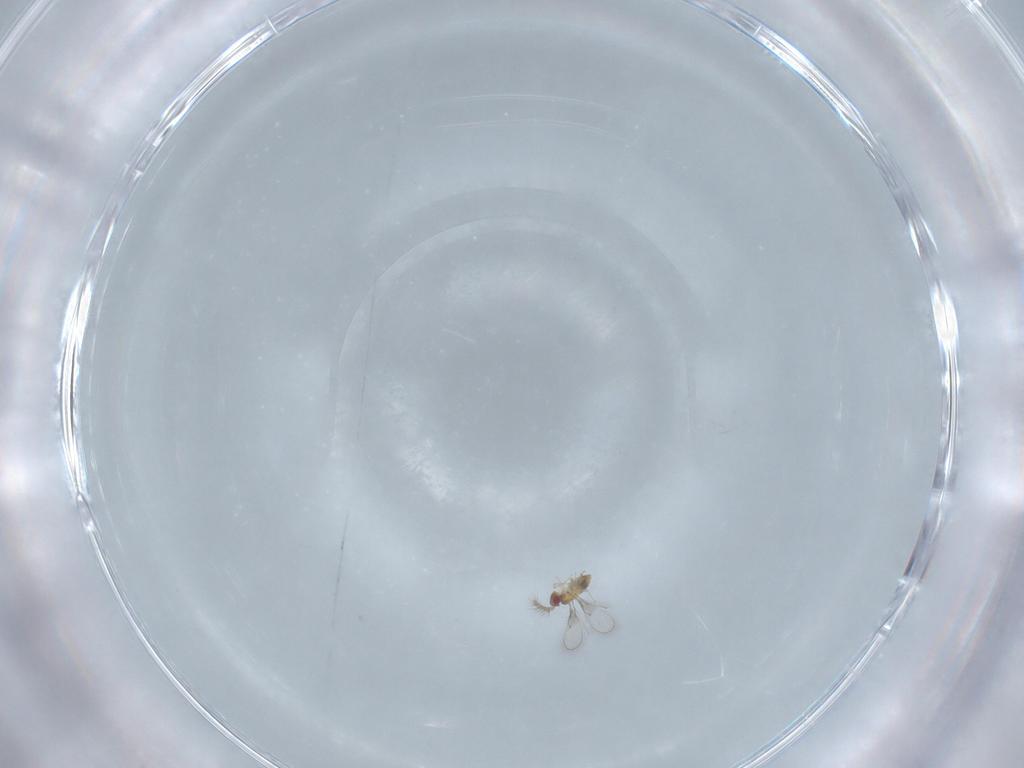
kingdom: Animalia
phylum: Arthropoda
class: Insecta
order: Hymenoptera
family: Trichogrammatidae
